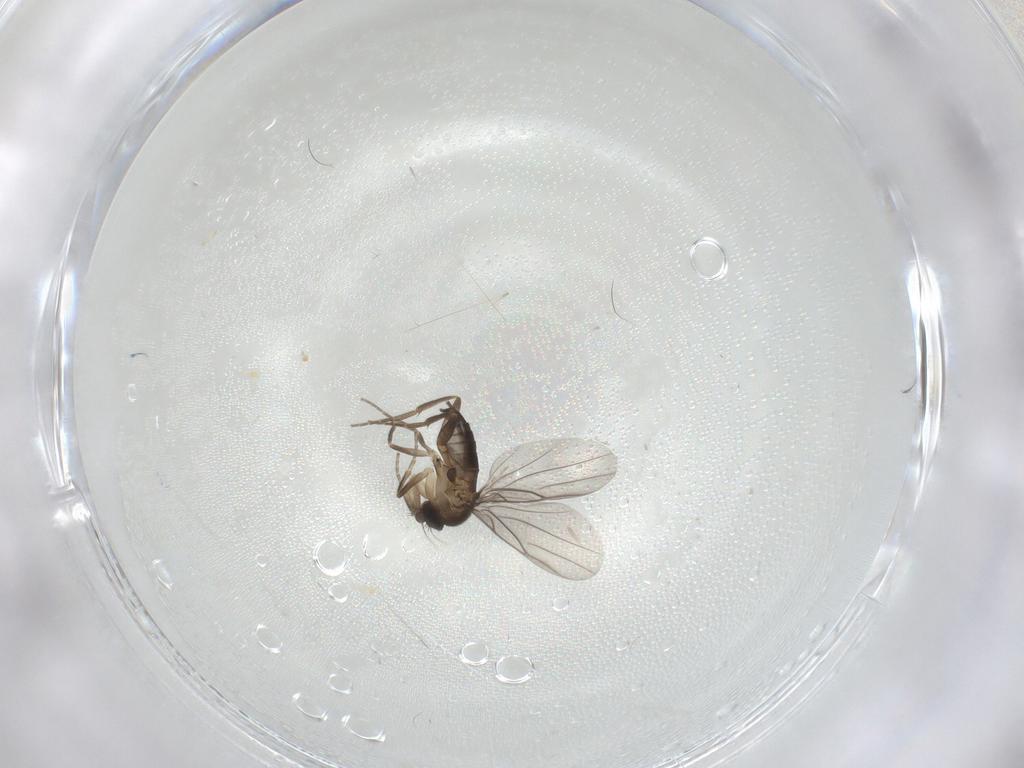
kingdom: Animalia
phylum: Arthropoda
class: Insecta
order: Diptera
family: Phoridae
